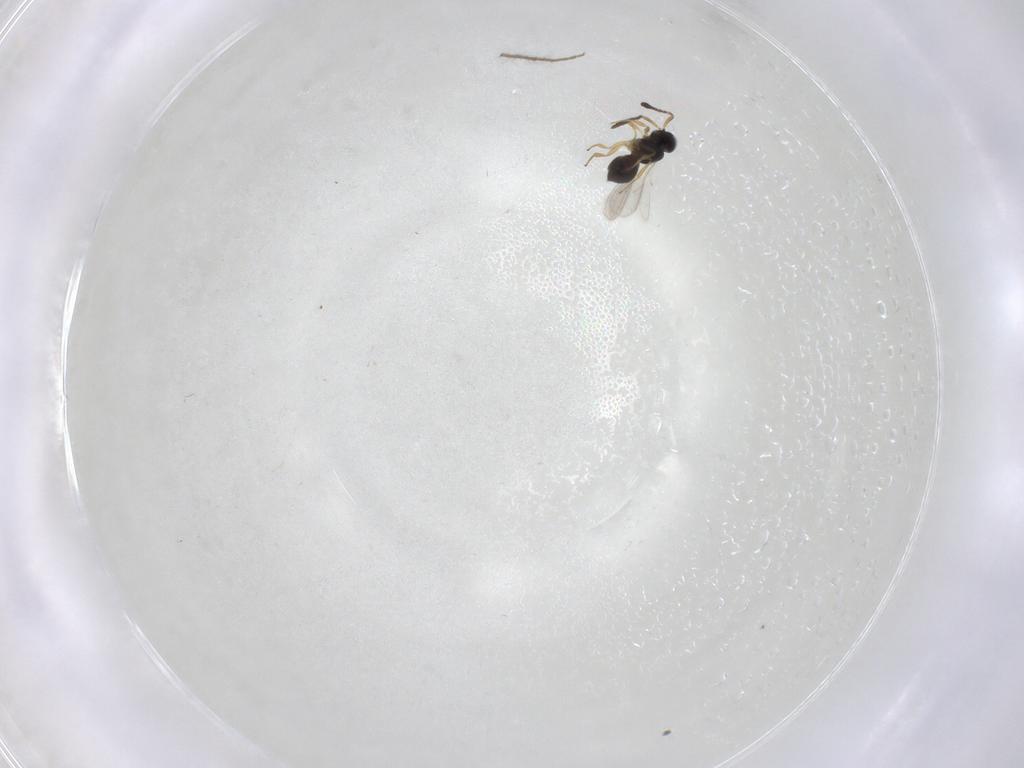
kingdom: Animalia
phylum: Arthropoda
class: Insecta
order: Hymenoptera
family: Scelionidae
